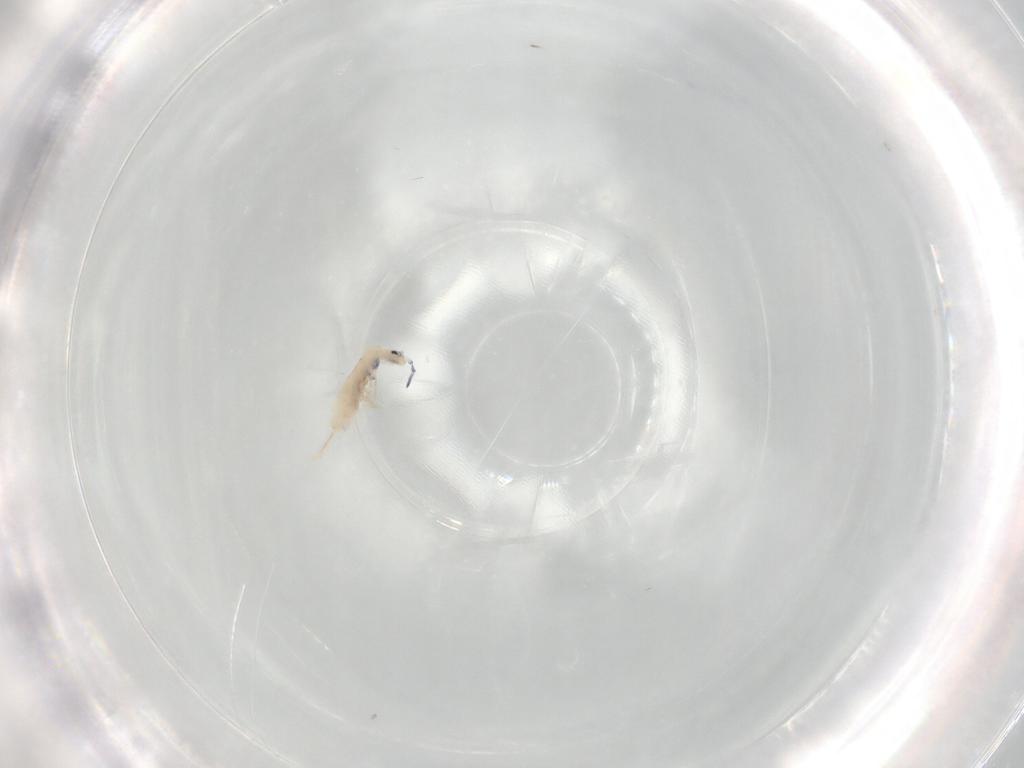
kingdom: Animalia
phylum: Arthropoda
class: Collembola
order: Entomobryomorpha
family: Entomobryidae
